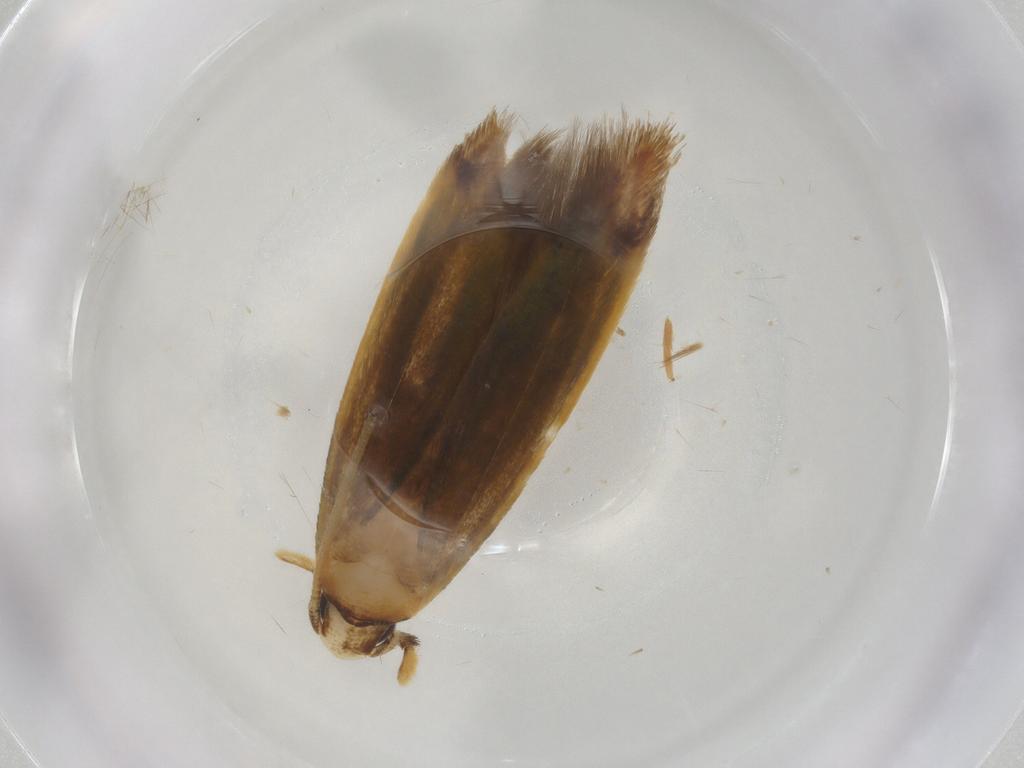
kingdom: Animalia
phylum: Arthropoda
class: Insecta
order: Lepidoptera
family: Tineidae
